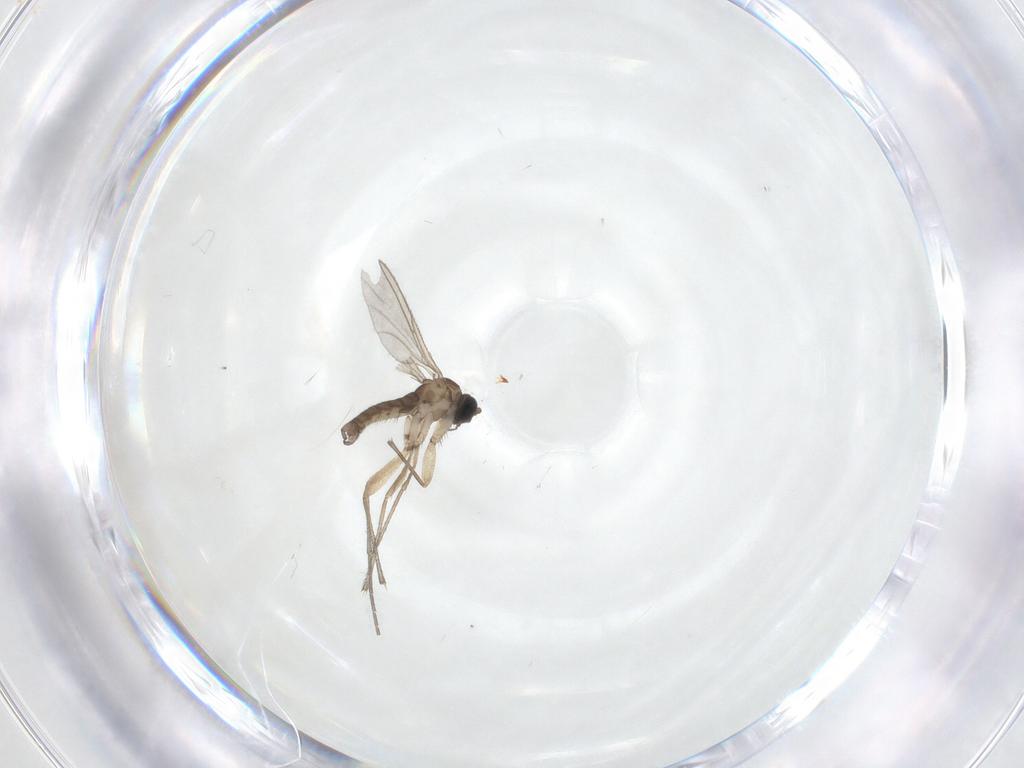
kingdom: Animalia
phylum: Arthropoda
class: Insecta
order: Diptera
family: Sciaridae
